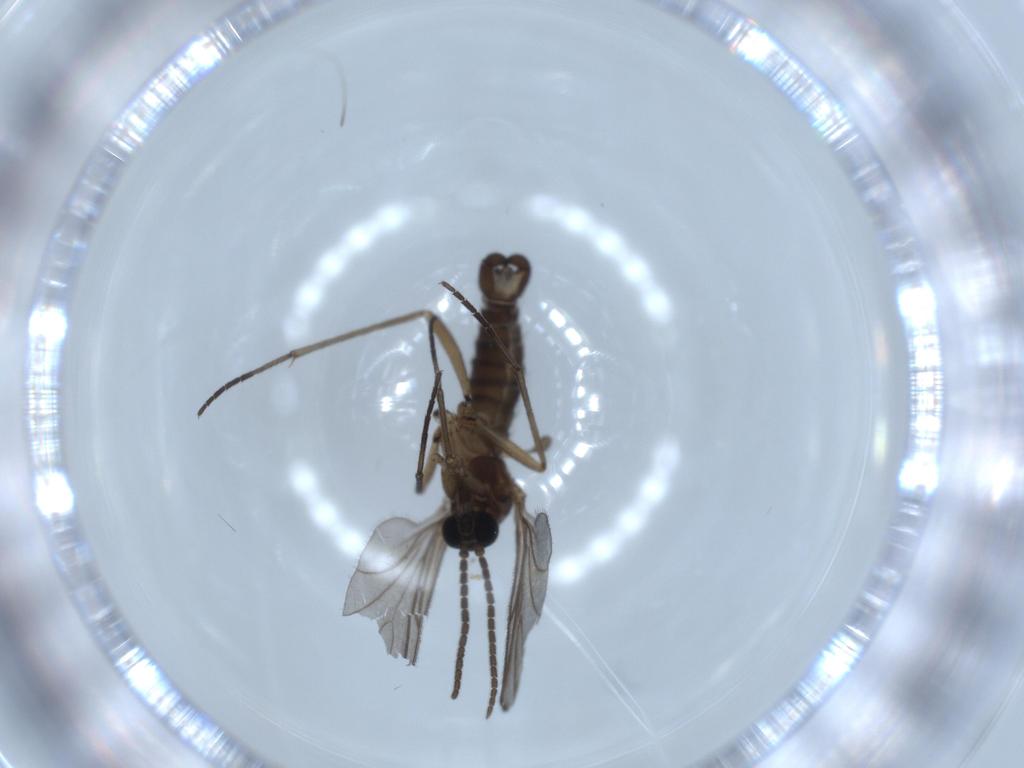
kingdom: Animalia
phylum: Arthropoda
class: Insecta
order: Diptera
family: Sciaridae
